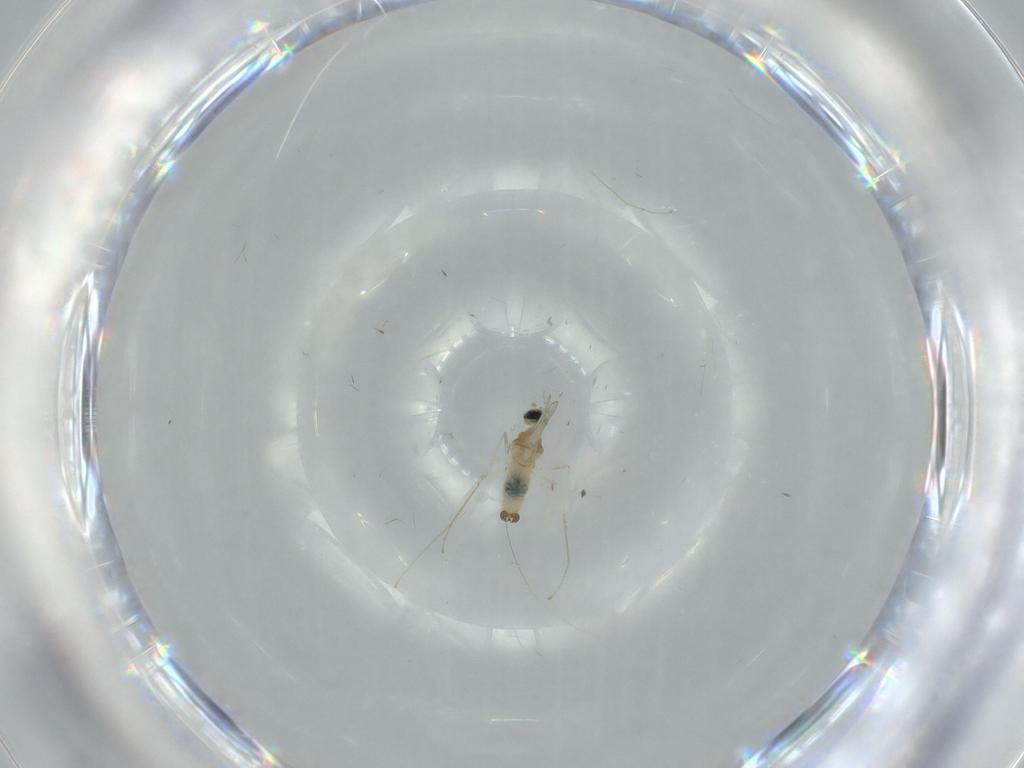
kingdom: Animalia
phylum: Arthropoda
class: Insecta
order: Diptera
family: Cecidomyiidae
